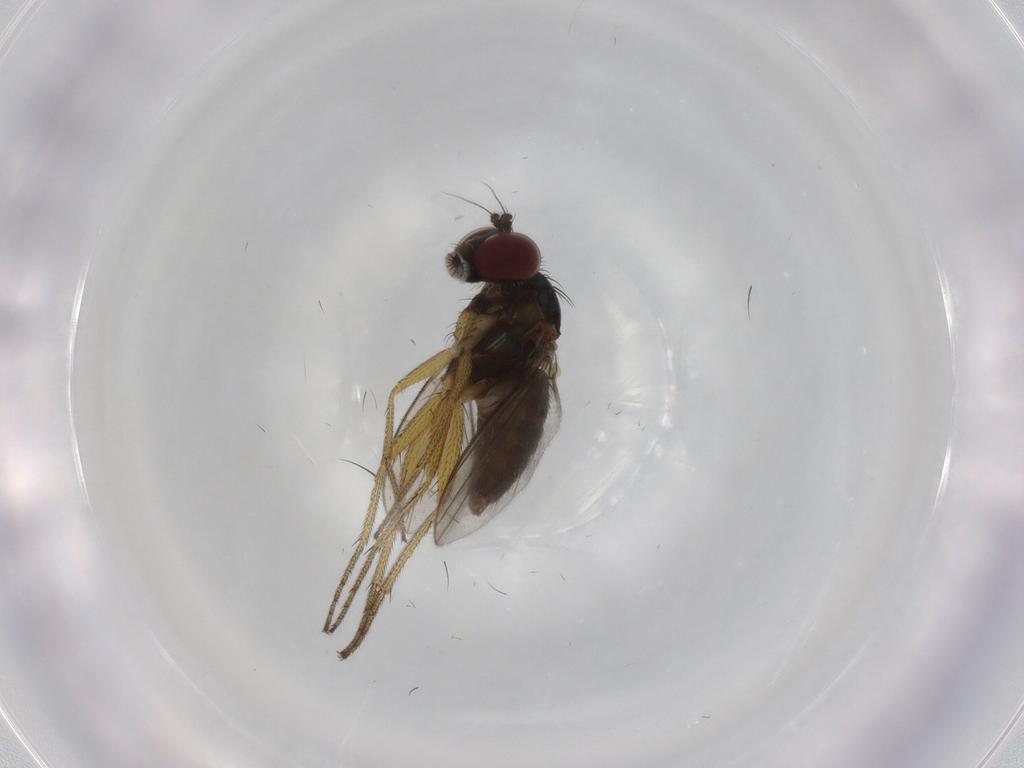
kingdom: Animalia
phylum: Arthropoda
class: Insecta
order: Diptera
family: Dolichopodidae
